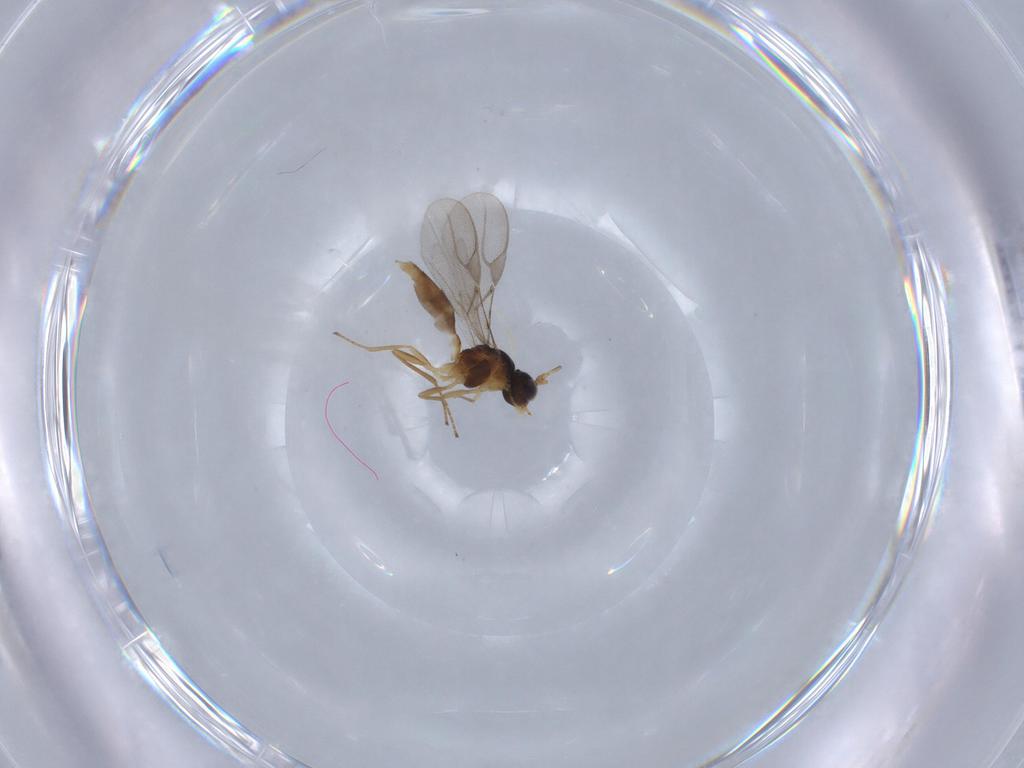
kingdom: Animalia
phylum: Arthropoda
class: Insecta
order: Hymenoptera
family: Braconidae
